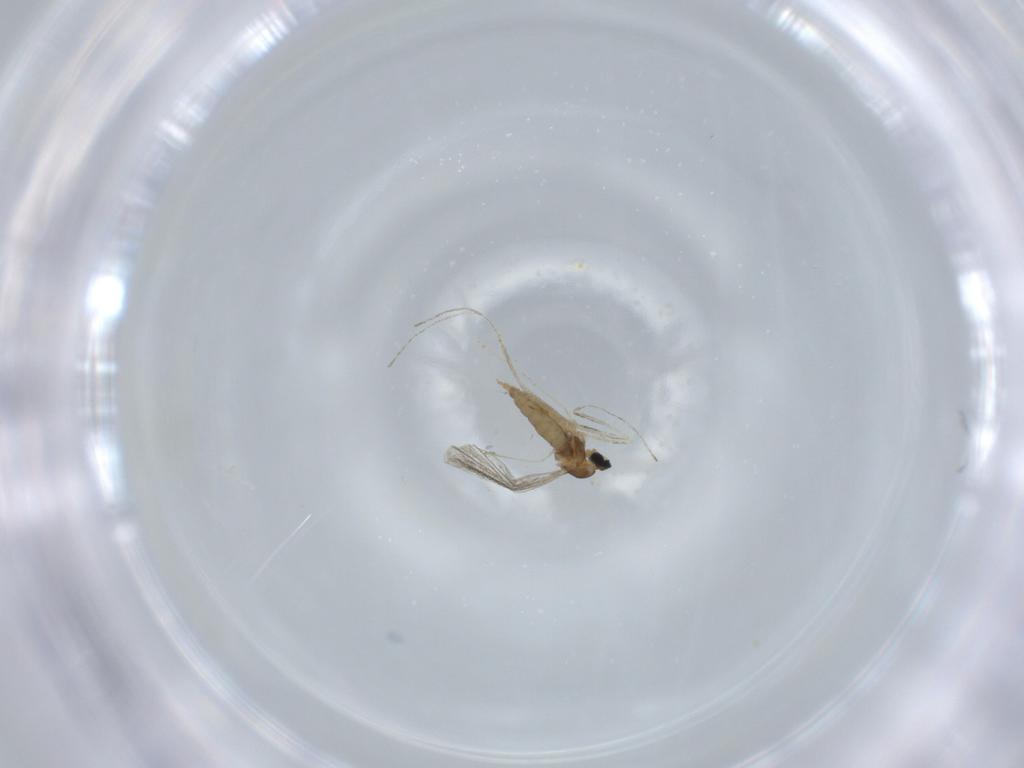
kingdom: Animalia
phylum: Arthropoda
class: Insecta
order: Diptera
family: Cecidomyiidae
